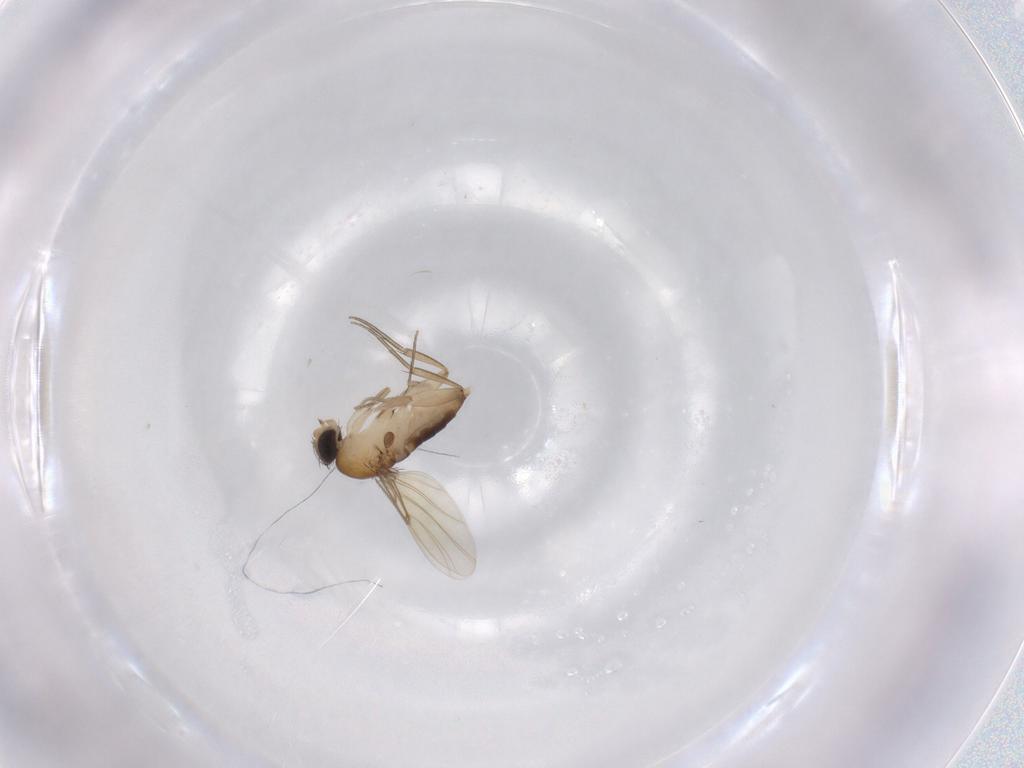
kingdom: Animalia
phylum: Arthropoda
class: Insecta
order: Diptera
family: Phoridae
